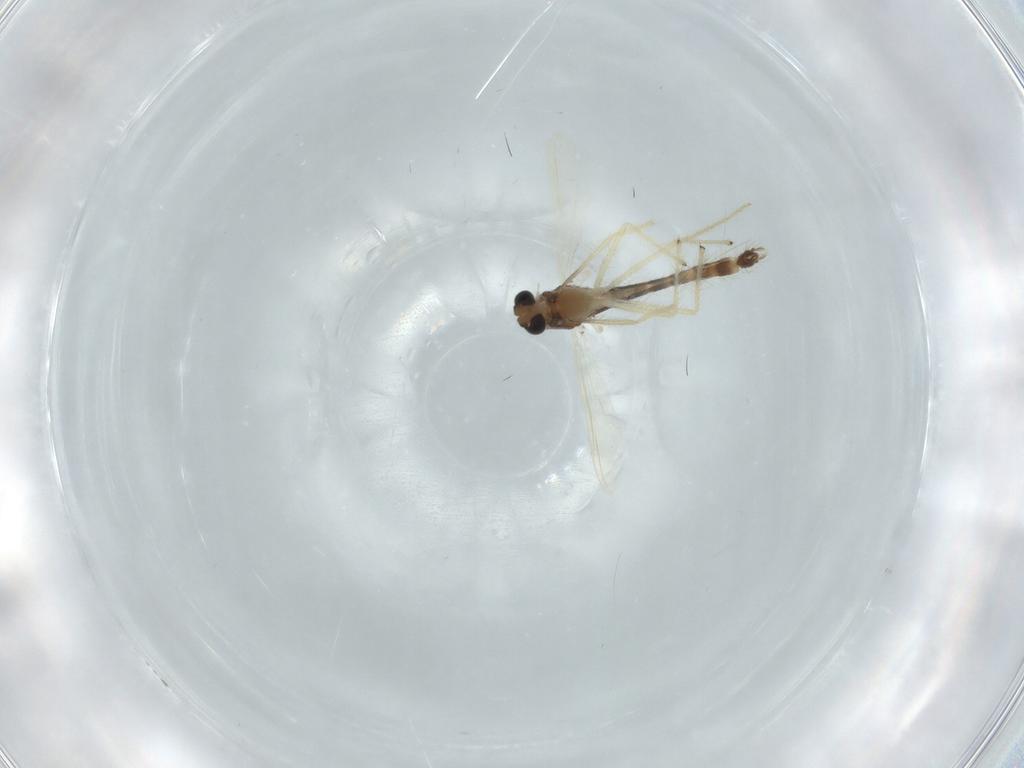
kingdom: Animalia
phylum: Arthropoda
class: Insecta
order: Diptera
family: Chironomidae
